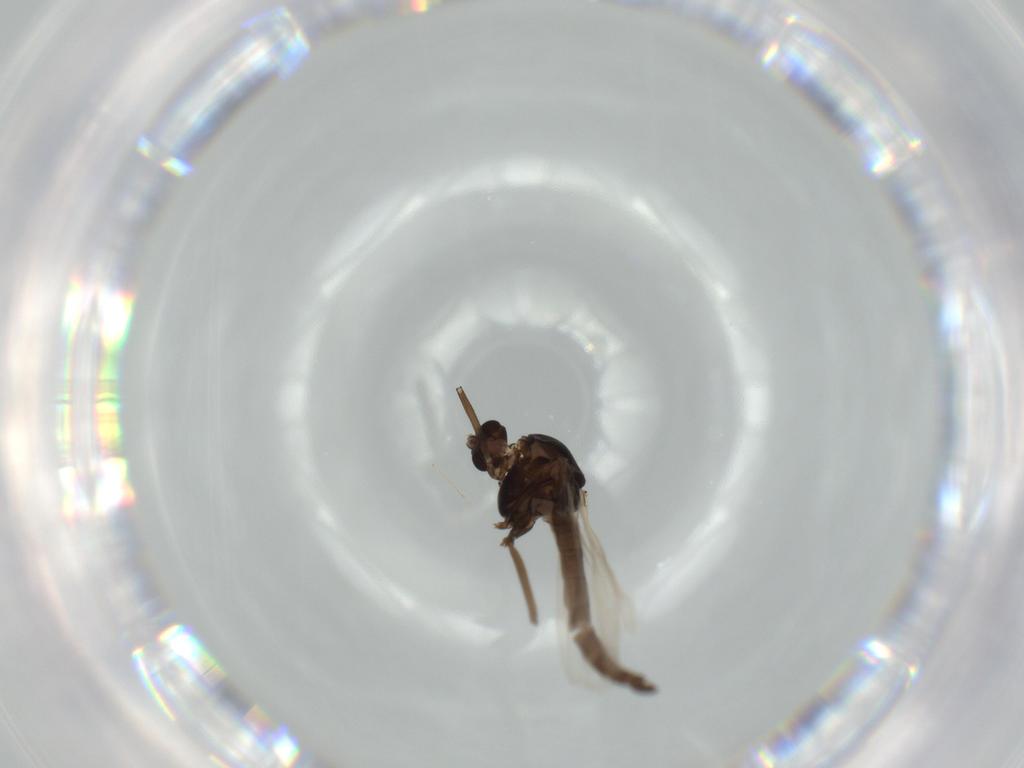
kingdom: Animalia
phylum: Arthropoda
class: Insecta
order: Diptera
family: Chironomidae
